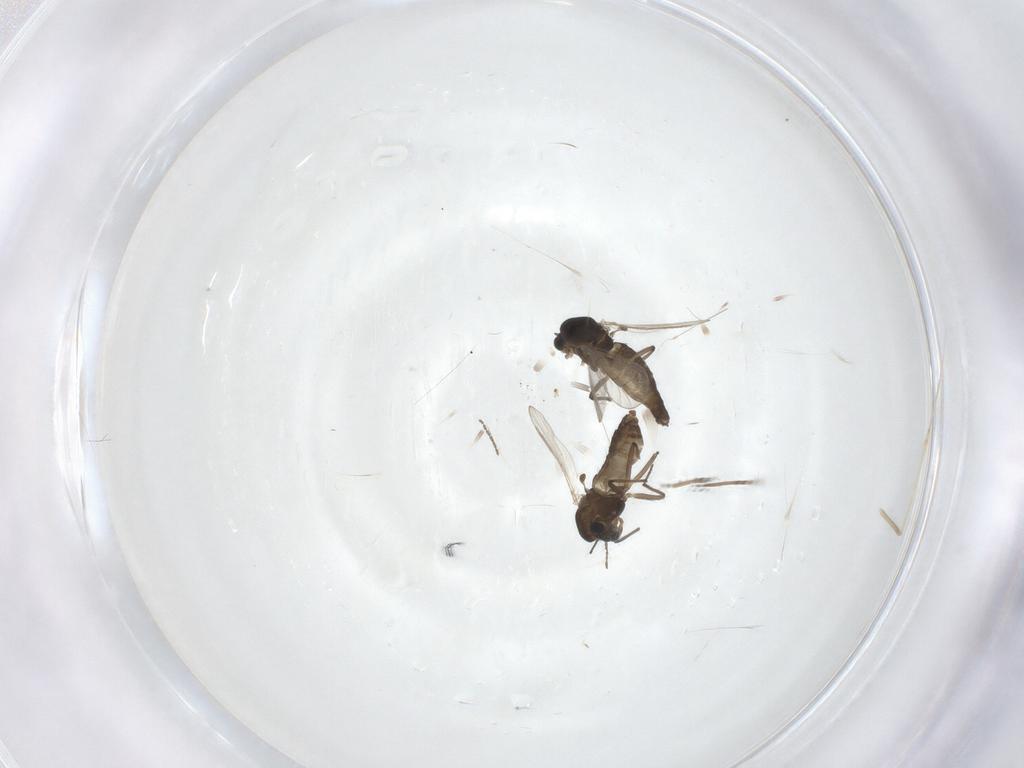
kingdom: Animalia
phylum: Arthropoda
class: Insecta
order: Diptera
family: Chironomidae
